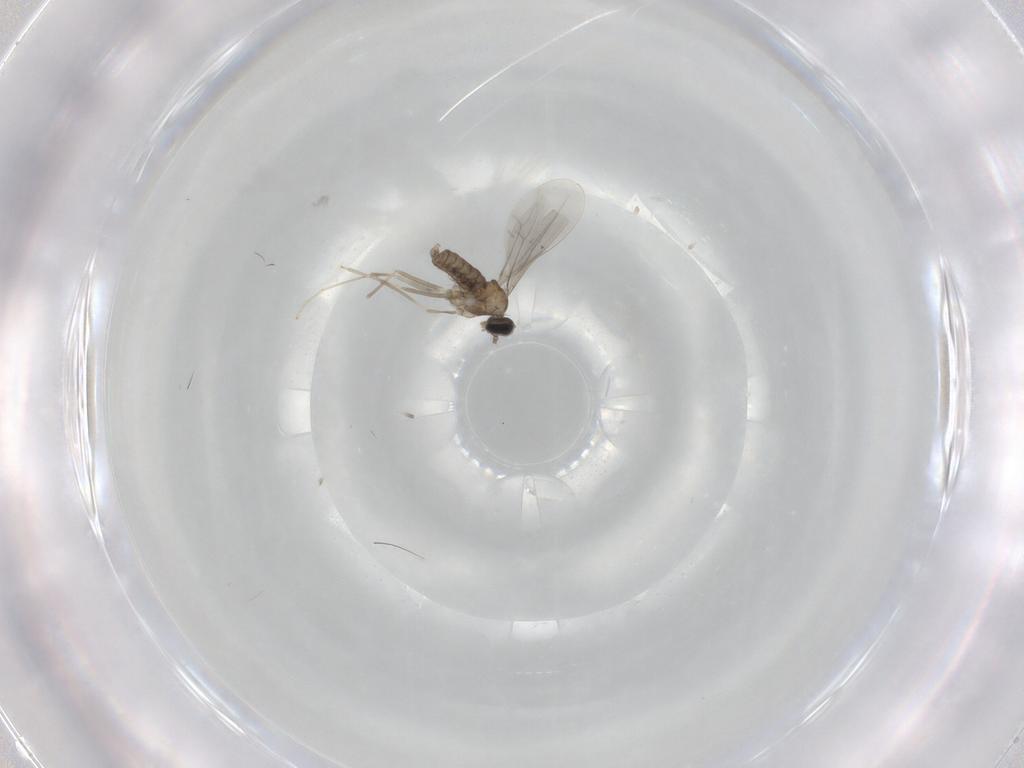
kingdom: Animalia
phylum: Arthropoda
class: Insecta
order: Diptera
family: Cecidomyiidae
